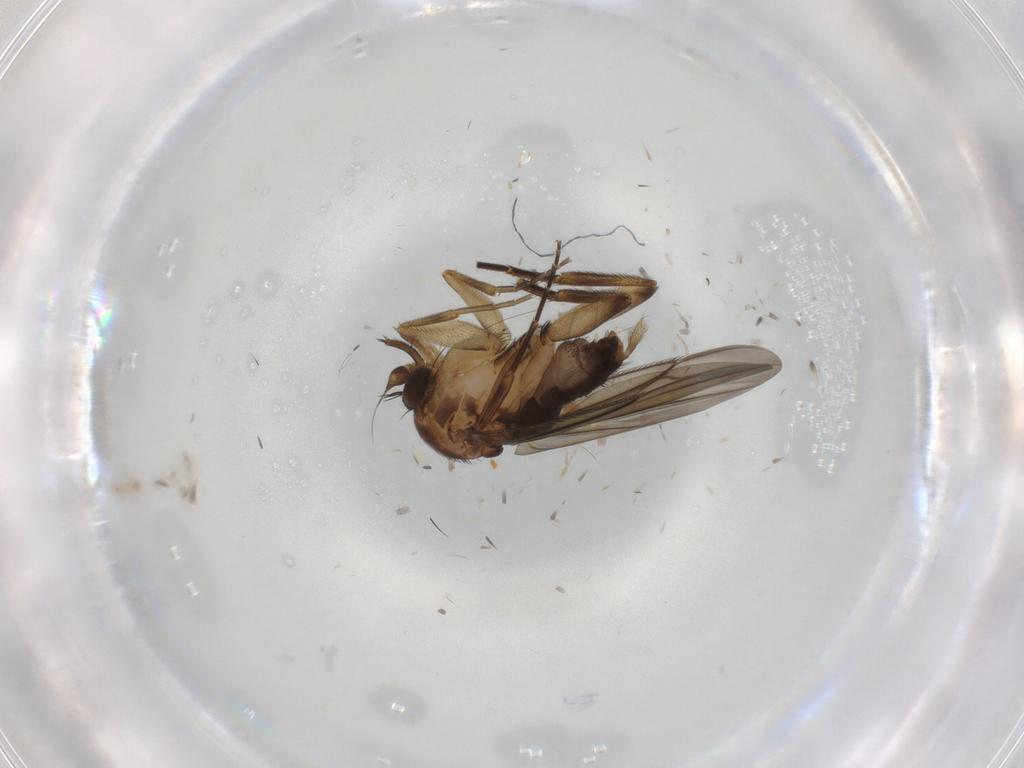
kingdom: Animalia
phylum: Arthropoda
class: Insecta
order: Diptera
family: Phoridae
